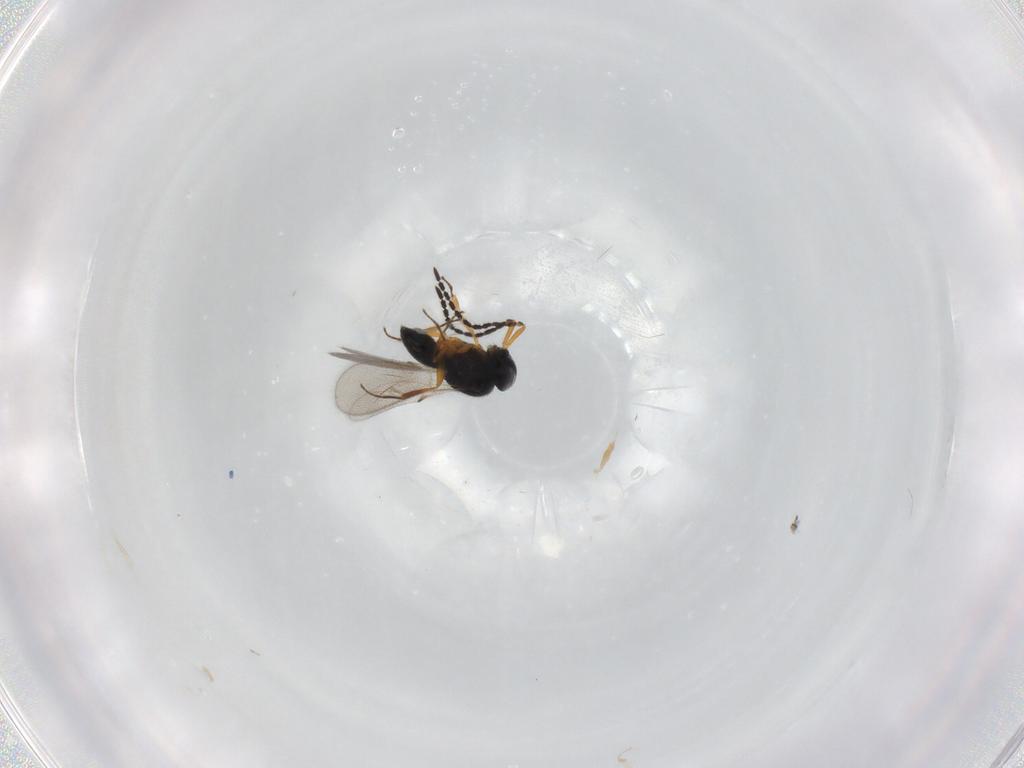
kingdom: Animalia
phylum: Arthropoda
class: Insecta
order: Hymenoptera
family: Scelionidae
